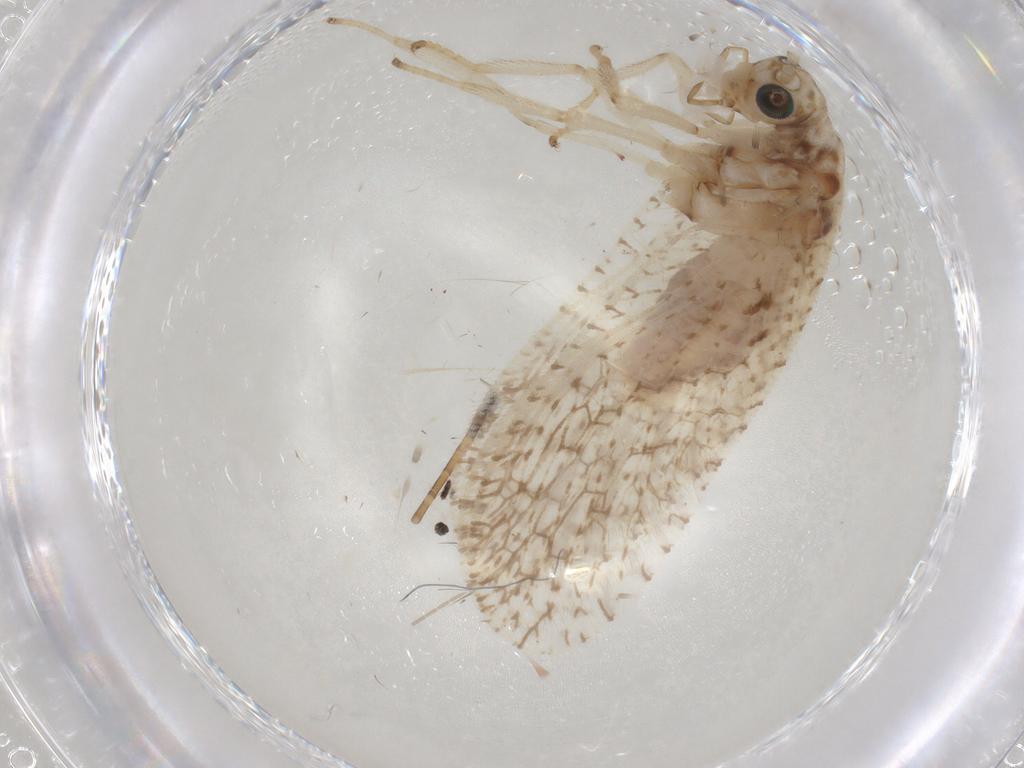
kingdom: Animalia
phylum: Arthropoda
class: Insecta
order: Neuroptera
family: Hemerobiidae
